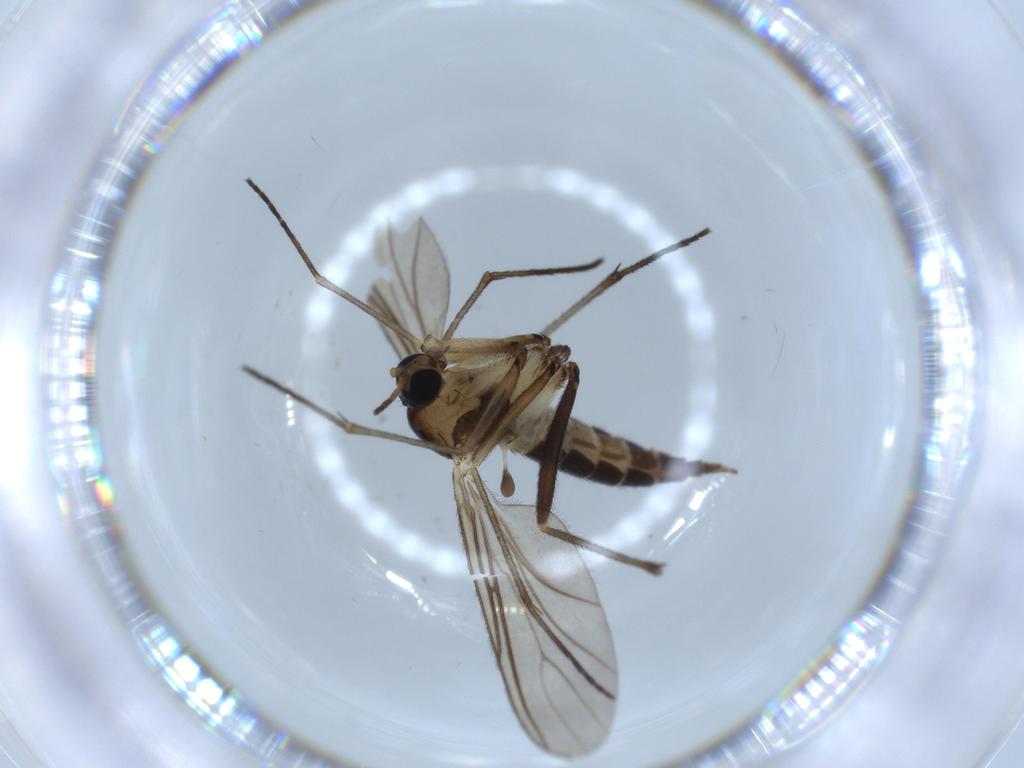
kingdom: Animalia
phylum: Arthropoda
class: Insecta
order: Diptera
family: Sciaridae
